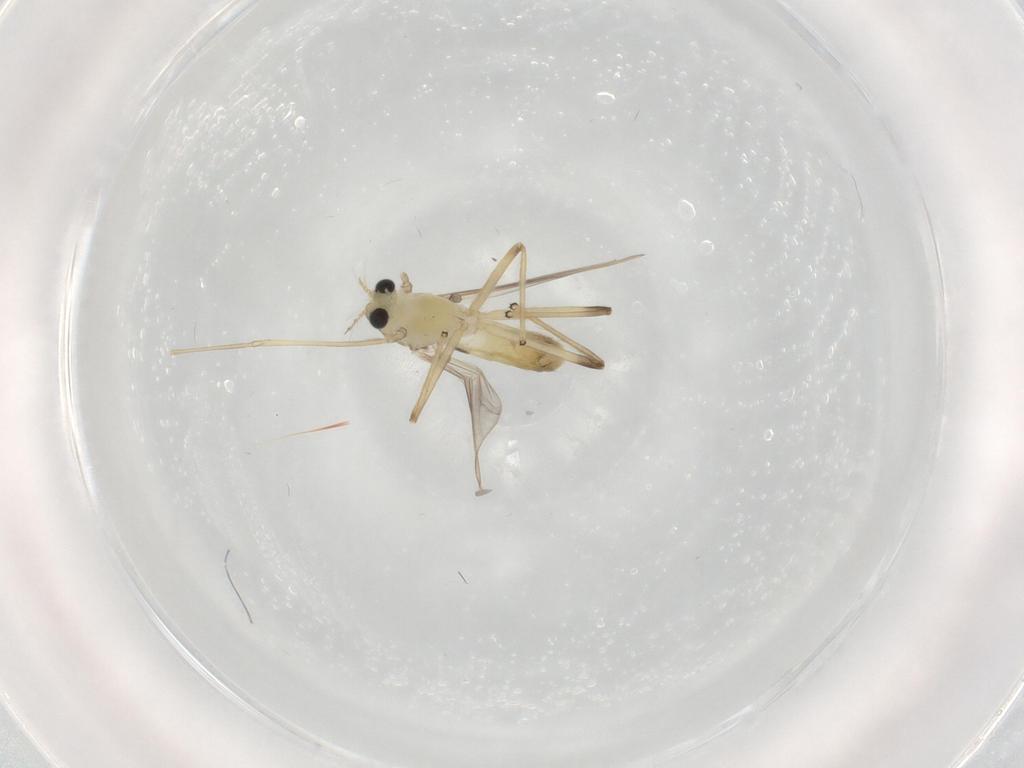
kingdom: Animalia
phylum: Arthropoda
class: Insecta
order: Diptera
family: Chironomidae
